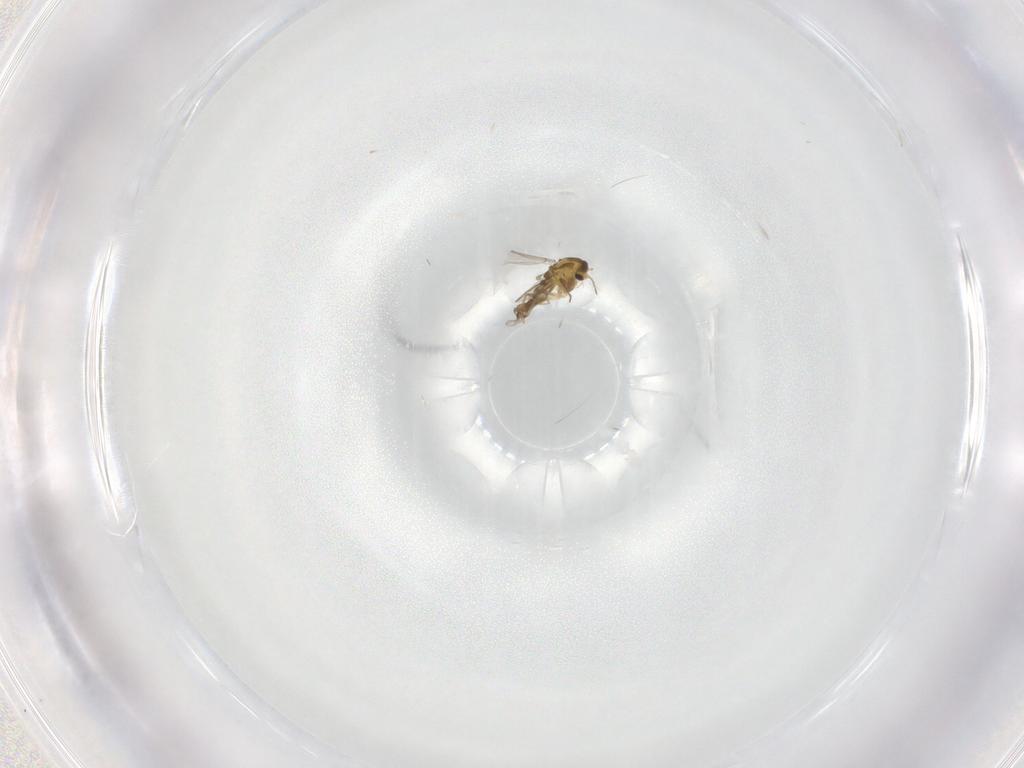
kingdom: Animalia
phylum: Arthropoda
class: Insecta
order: Diptera
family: Chironomidae
